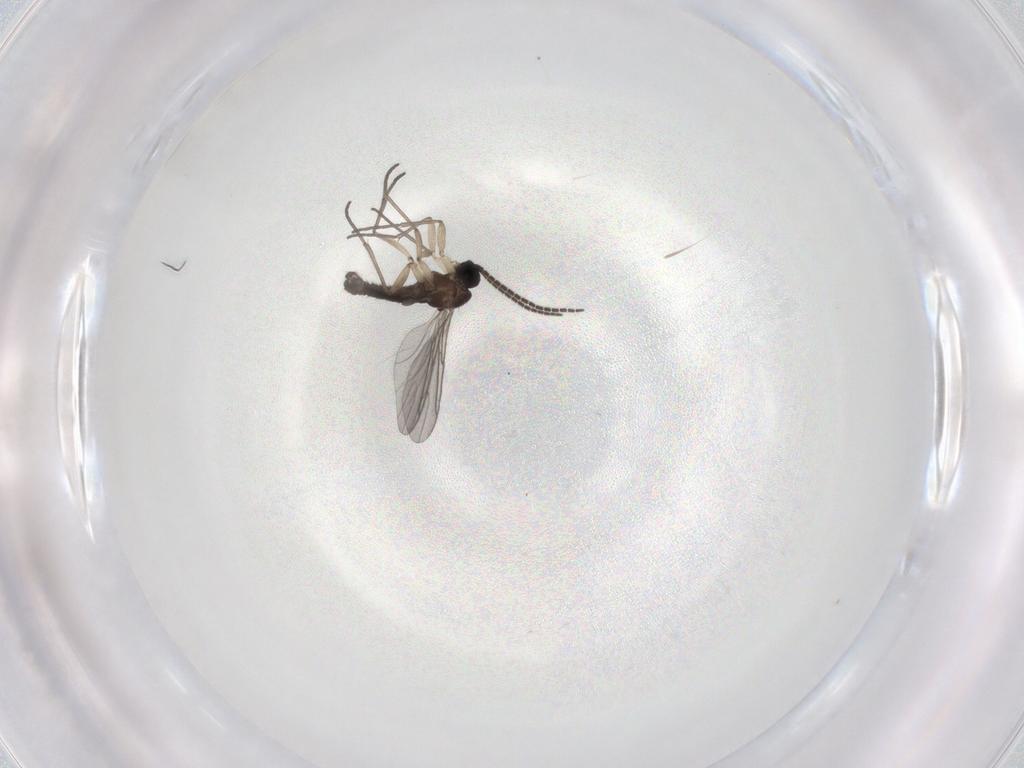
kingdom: Animalia
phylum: Arthropoda
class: Insecta
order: Diptera
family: Sciaridae
